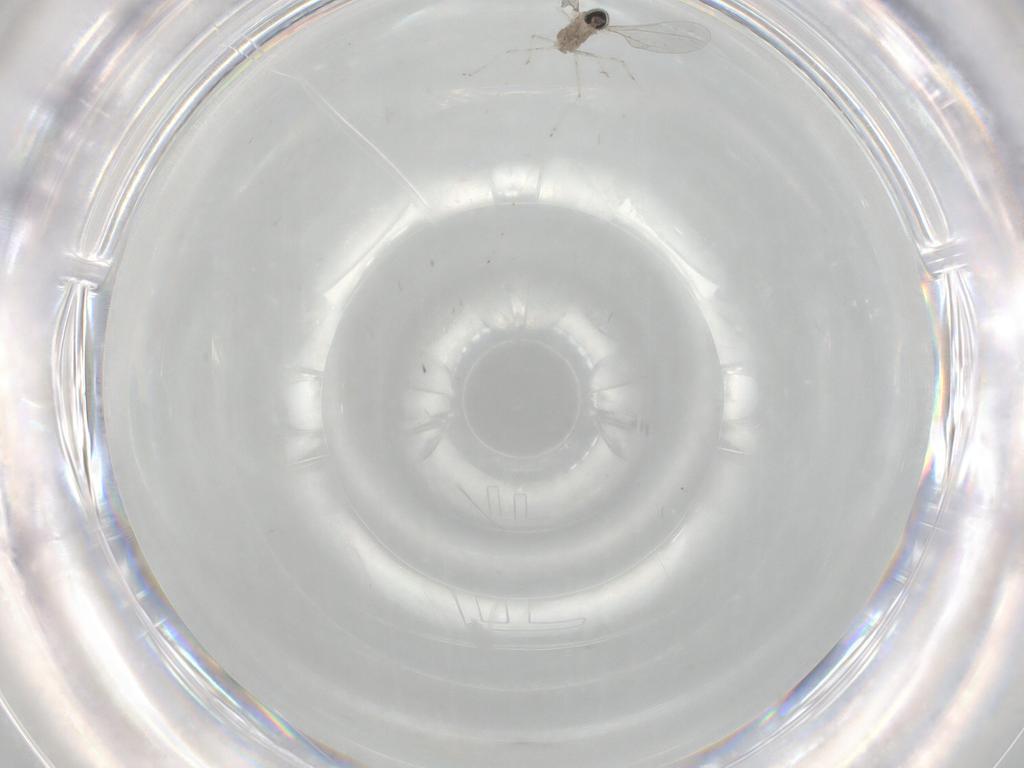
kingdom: Animalia
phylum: Arthropoda
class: Insecta
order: Diptera
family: Cecidomyiidae
